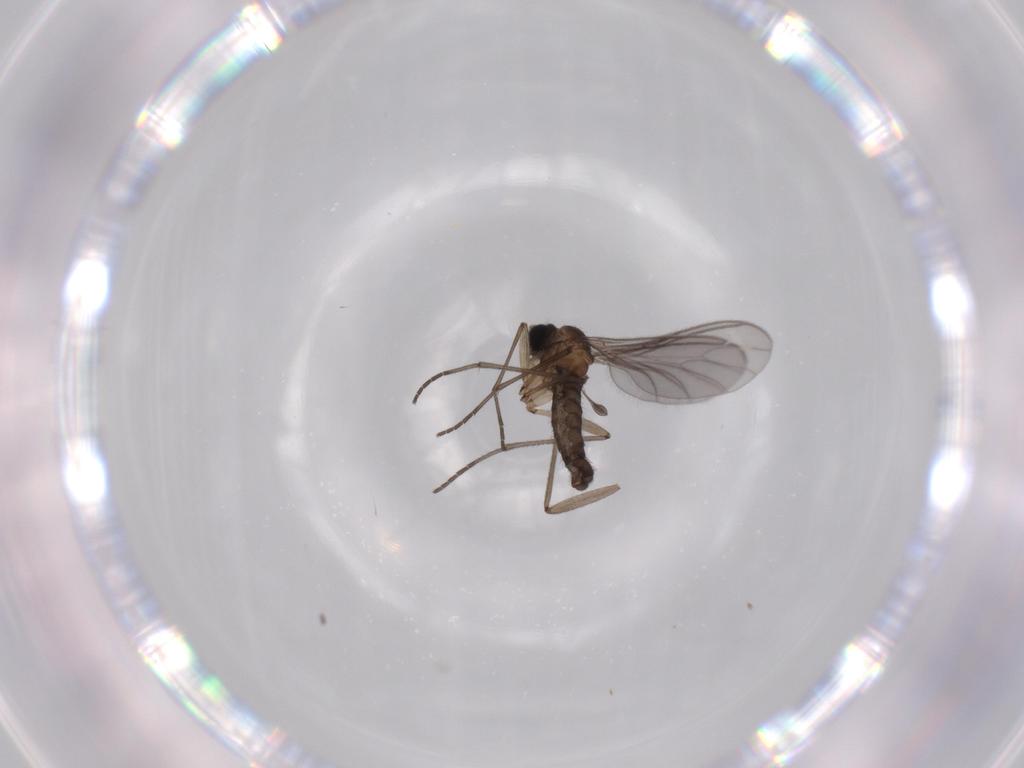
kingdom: Animalia
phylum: Arthropoda
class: Insecta
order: Diptera
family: Sciaridae
